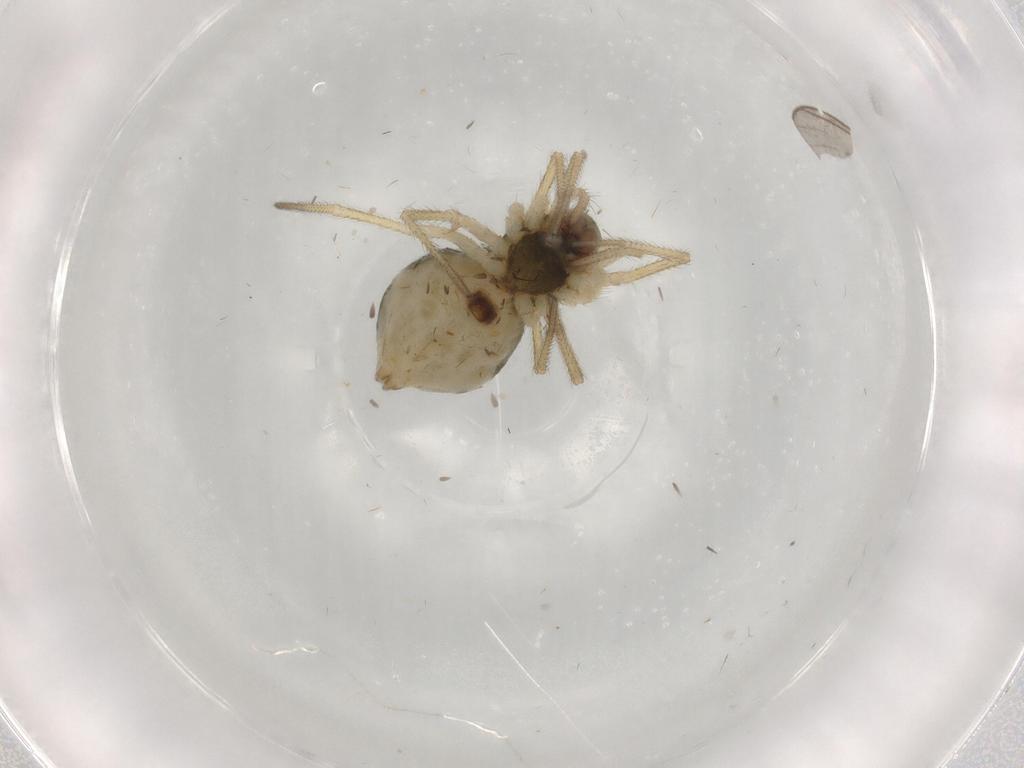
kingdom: Animalia
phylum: Arthropoda
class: Arachnida
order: Araneae
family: Linyphiidae
